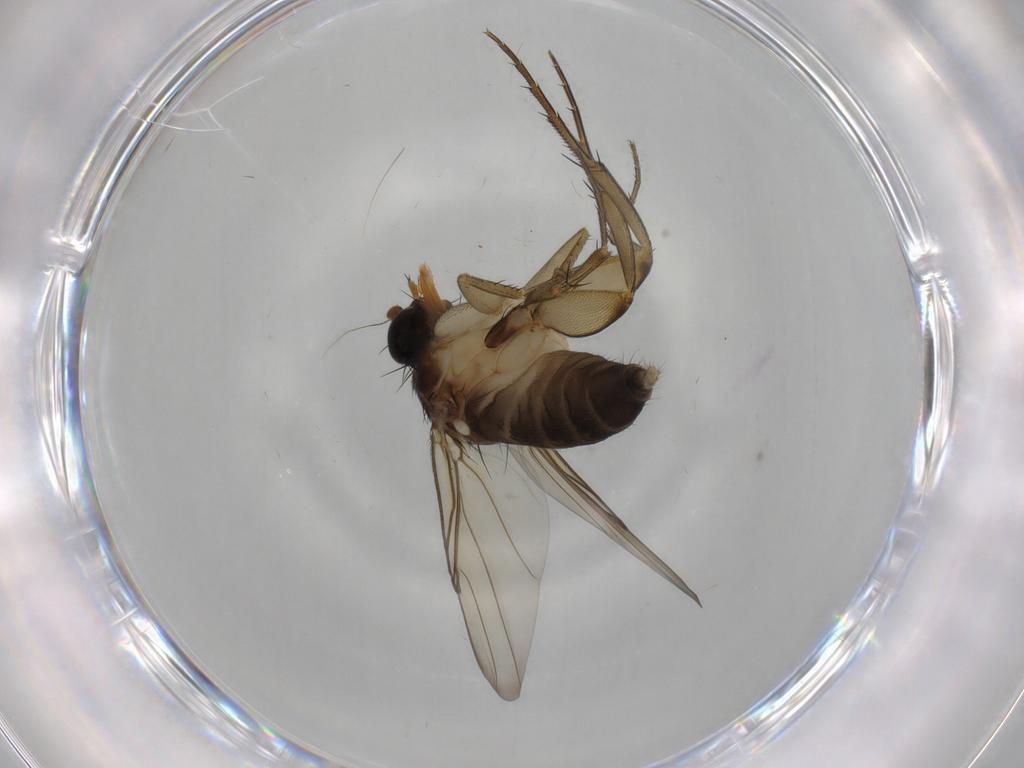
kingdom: Animalia
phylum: Arthropoda
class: Insecta
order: Diptera
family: Phoridae
